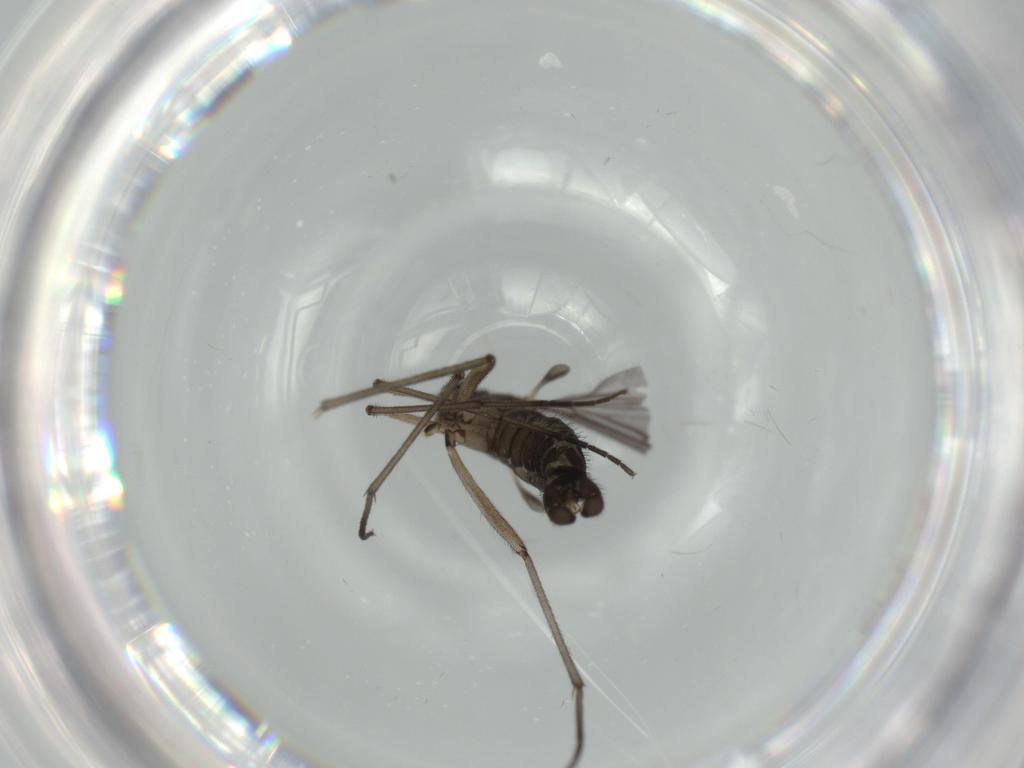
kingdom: Animalia
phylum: Arthropoda
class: Insecta
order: Diptera
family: Sciaridae
